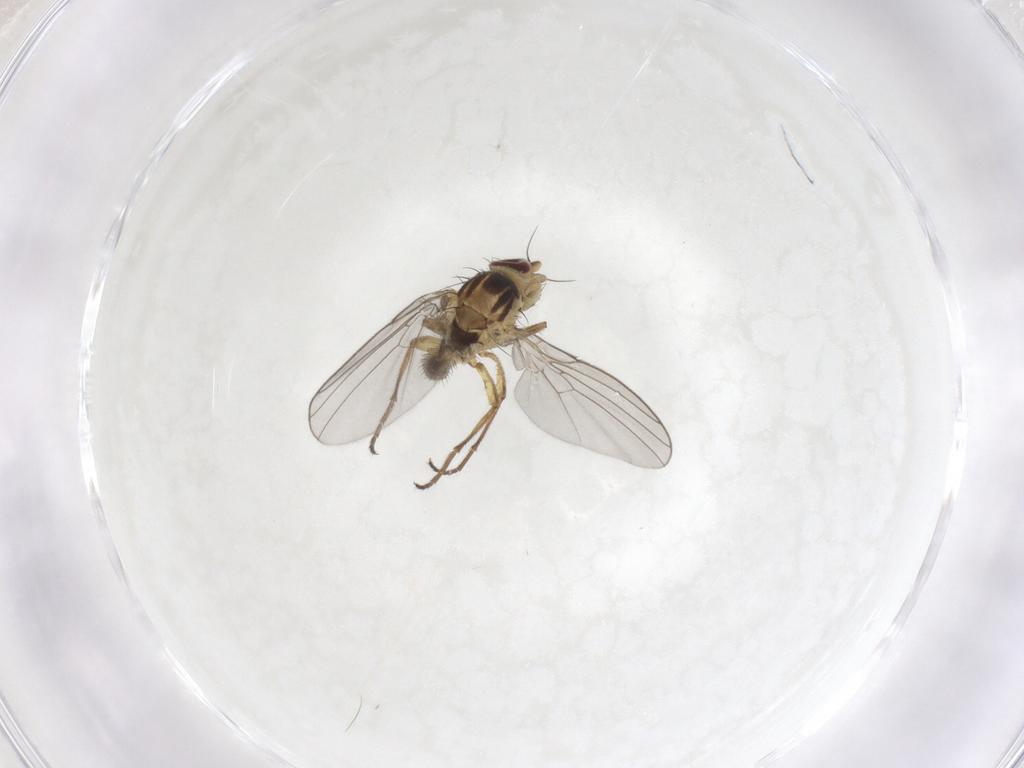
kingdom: Animalia
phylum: Arthropoda
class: Insecta
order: Diptera
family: Agromyzidae
